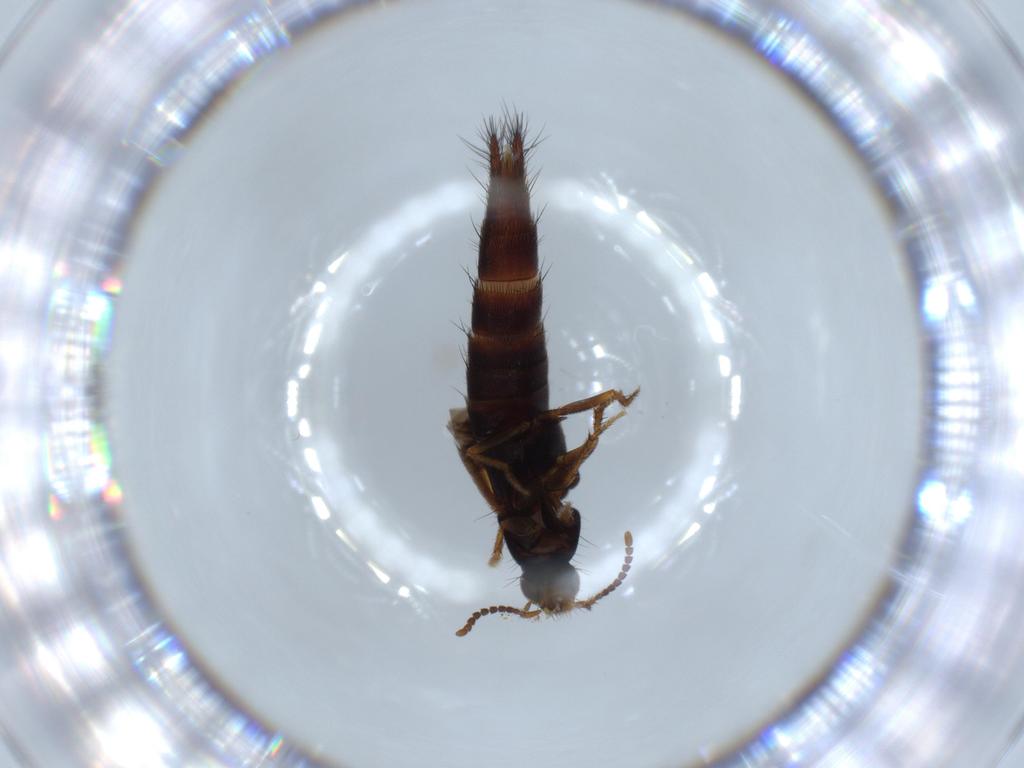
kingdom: Animalia
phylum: Arthropoda
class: Insecta
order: Coleoptera
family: Staphylinidae
